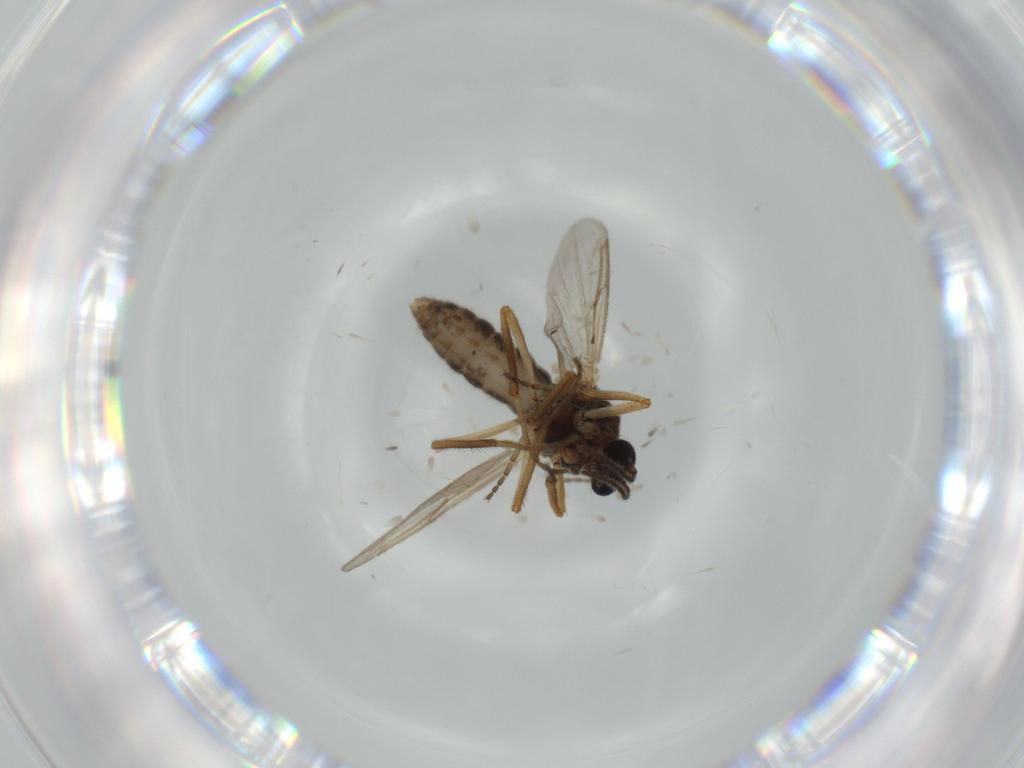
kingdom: Animalia
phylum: Arthropoda
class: Insecta
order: Diptera
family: Ceratopogonidae
